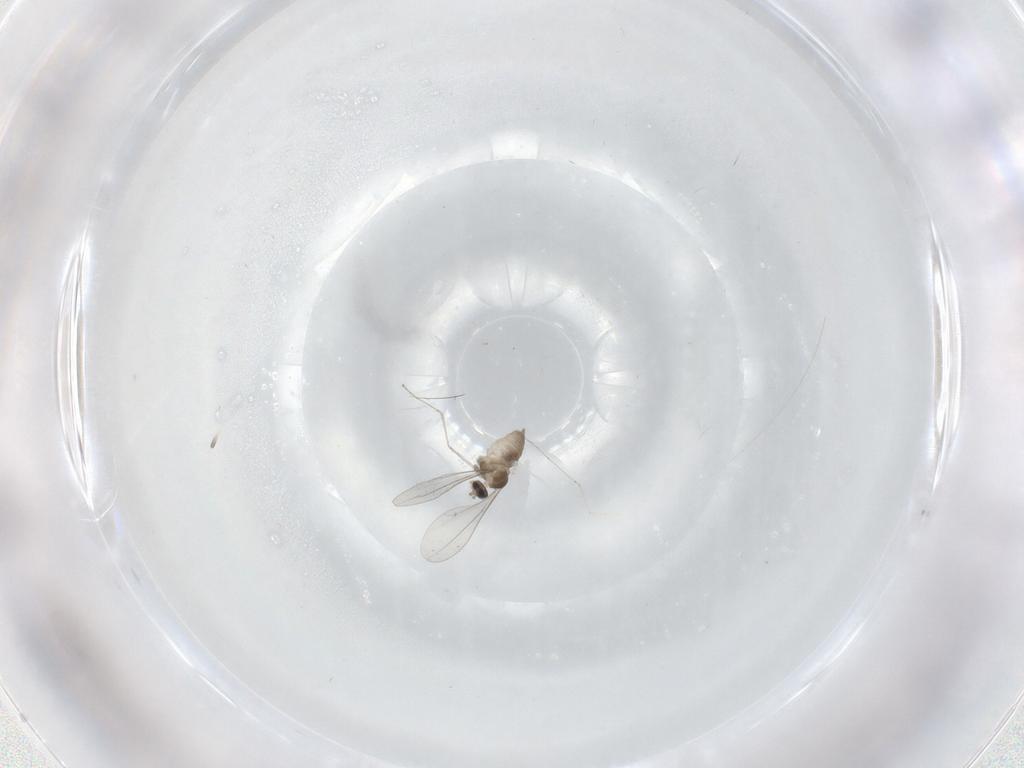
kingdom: Animalia
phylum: Arthropoda
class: Insecta
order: Diptera
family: Cecidomyiidae
